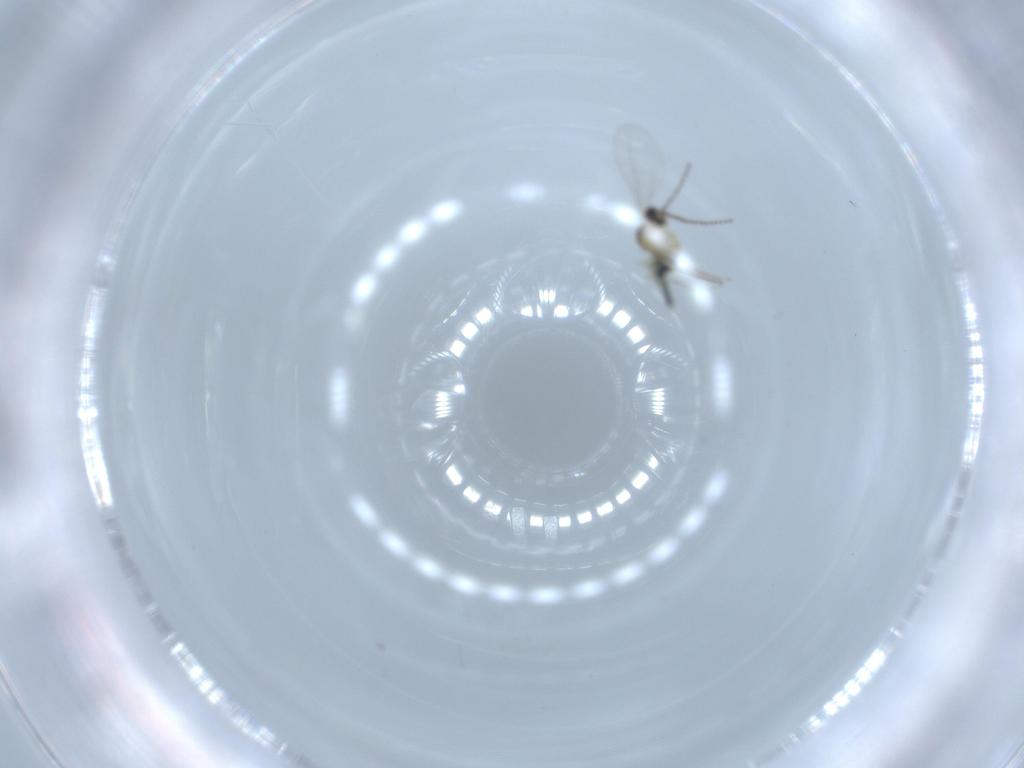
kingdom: Animalia
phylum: Arthropoda
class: Insecta
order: Diptera
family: Cecidomyiidae
